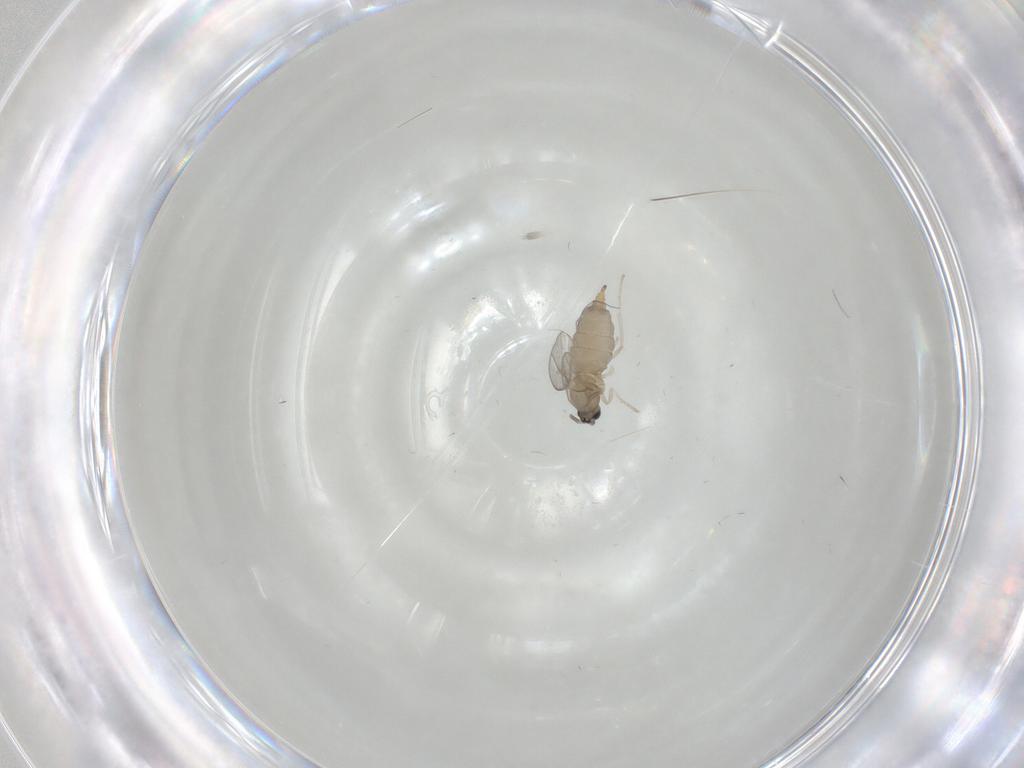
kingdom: Animalia
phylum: Arthropoda
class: Insecta
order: Diptera
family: Cecidomyiidae
